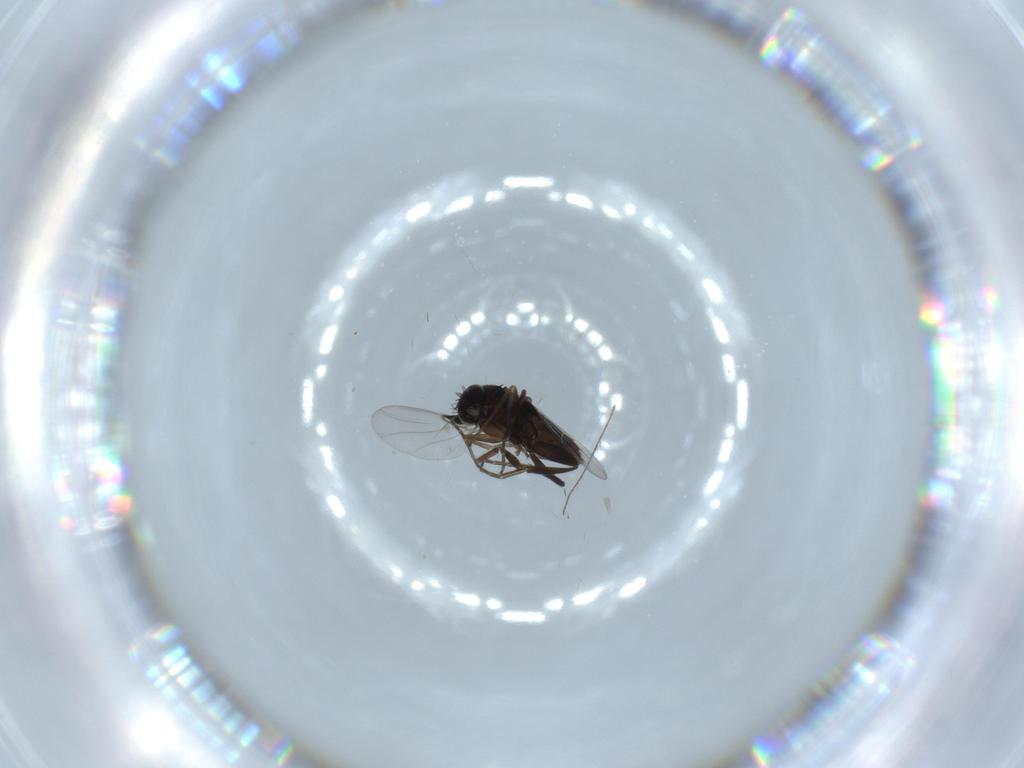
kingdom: Animalia
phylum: Arthropoda
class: Insecta
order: Diptera
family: Phoridae
